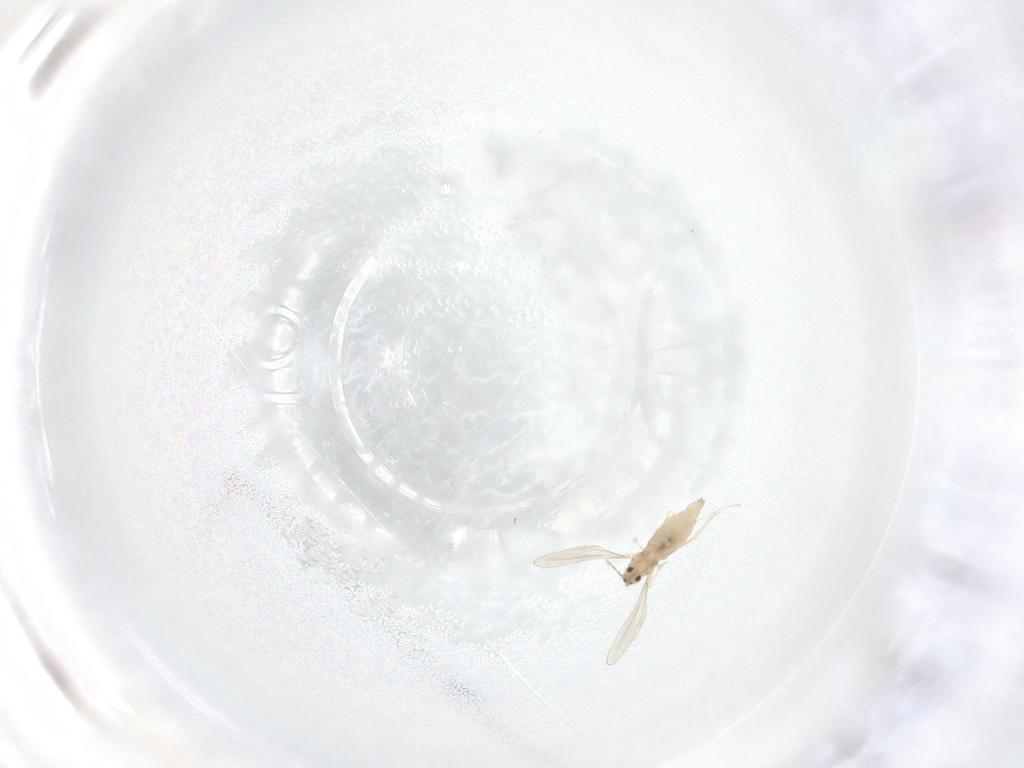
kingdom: Animalia
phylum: Arthropoda
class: Insecta
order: Diptera
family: Cecidomyiidae
